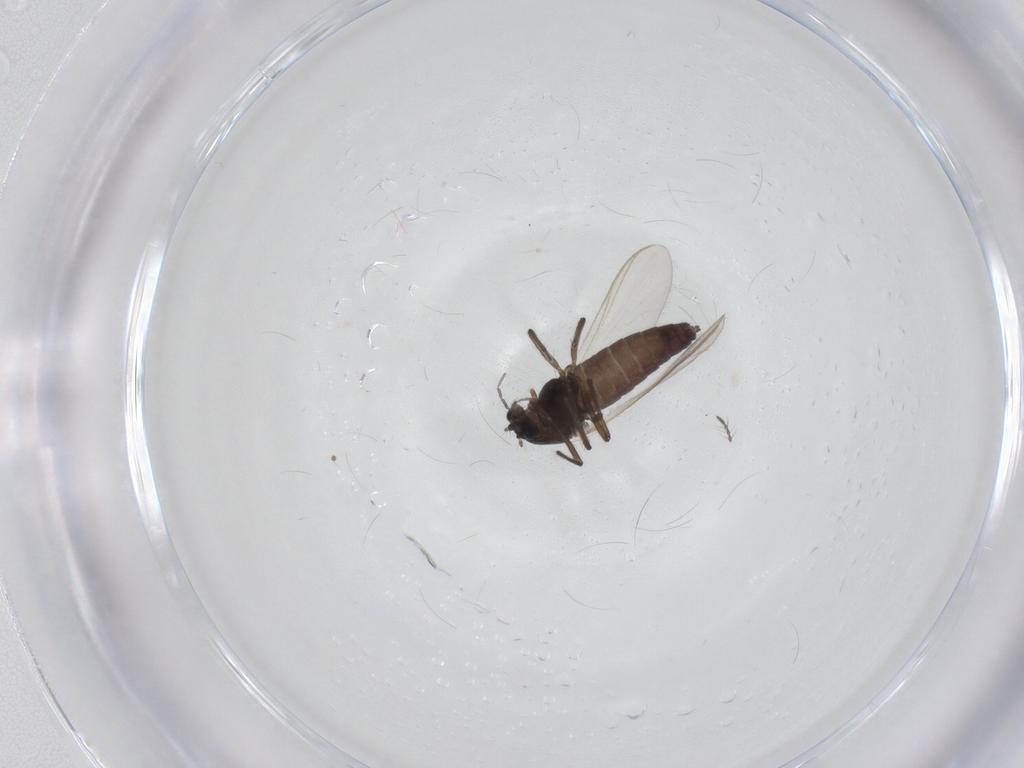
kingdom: Animalia
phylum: Arthropoda
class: Insecta
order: Diptera
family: Chironomidae
